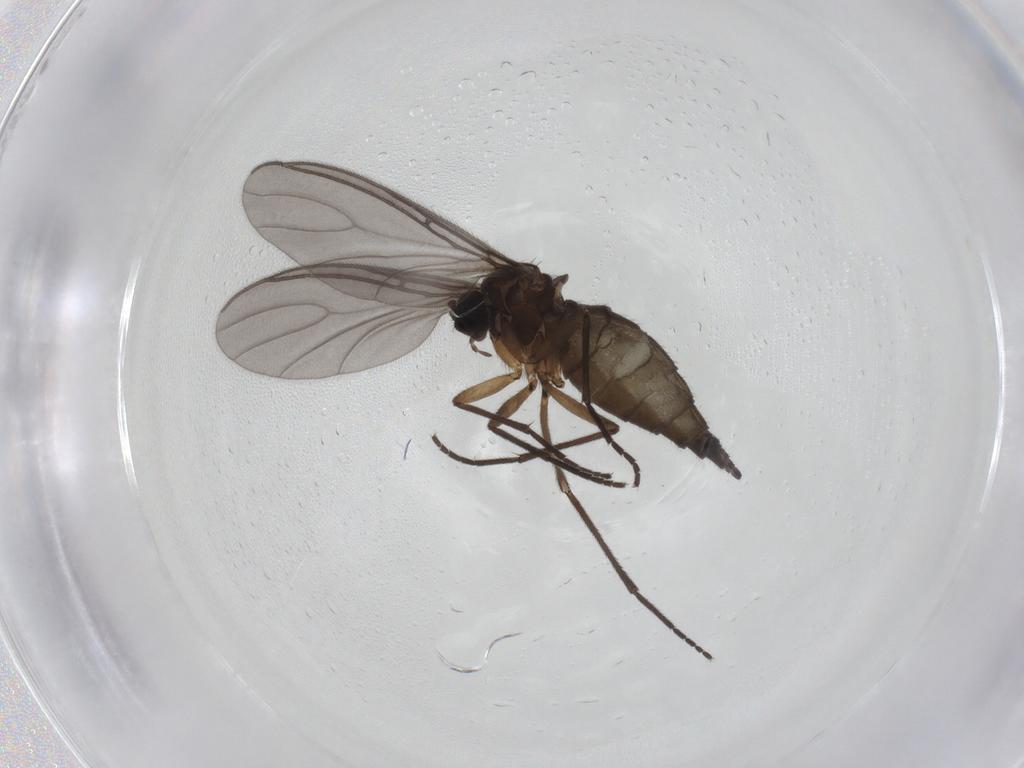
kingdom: Animalia
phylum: Arthropoda
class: Insecta
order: Diptera
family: Sciaridae
